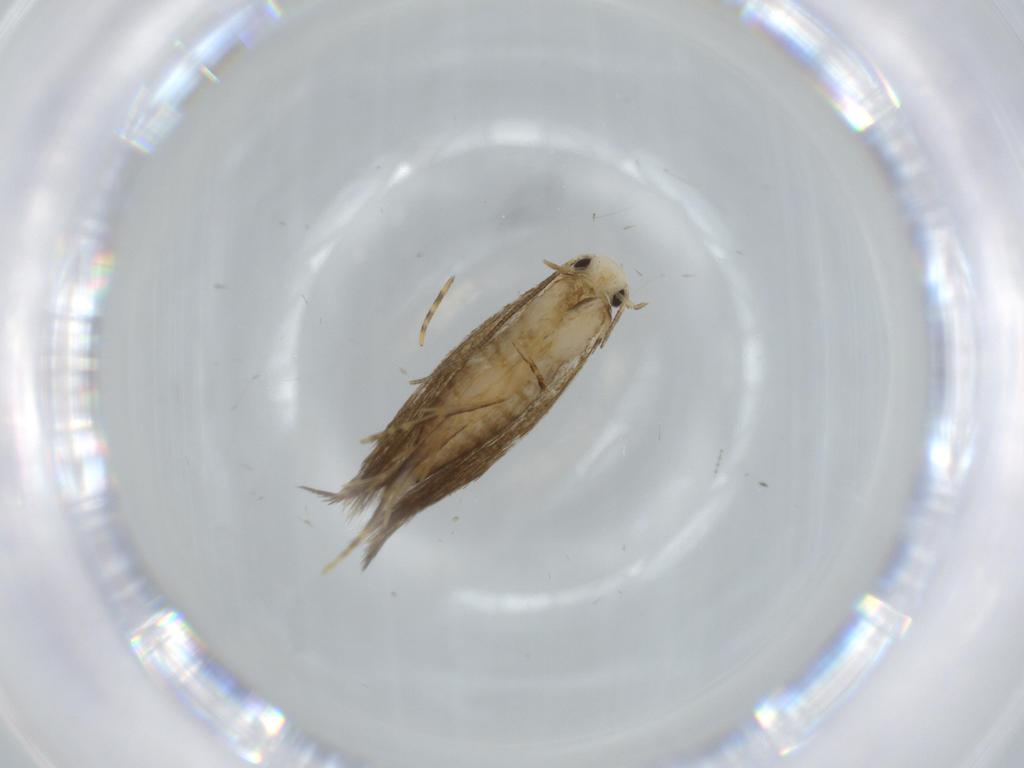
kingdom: Animalia
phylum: Arthropoda
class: Insecta
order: Lepidoptera
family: Tineidae
